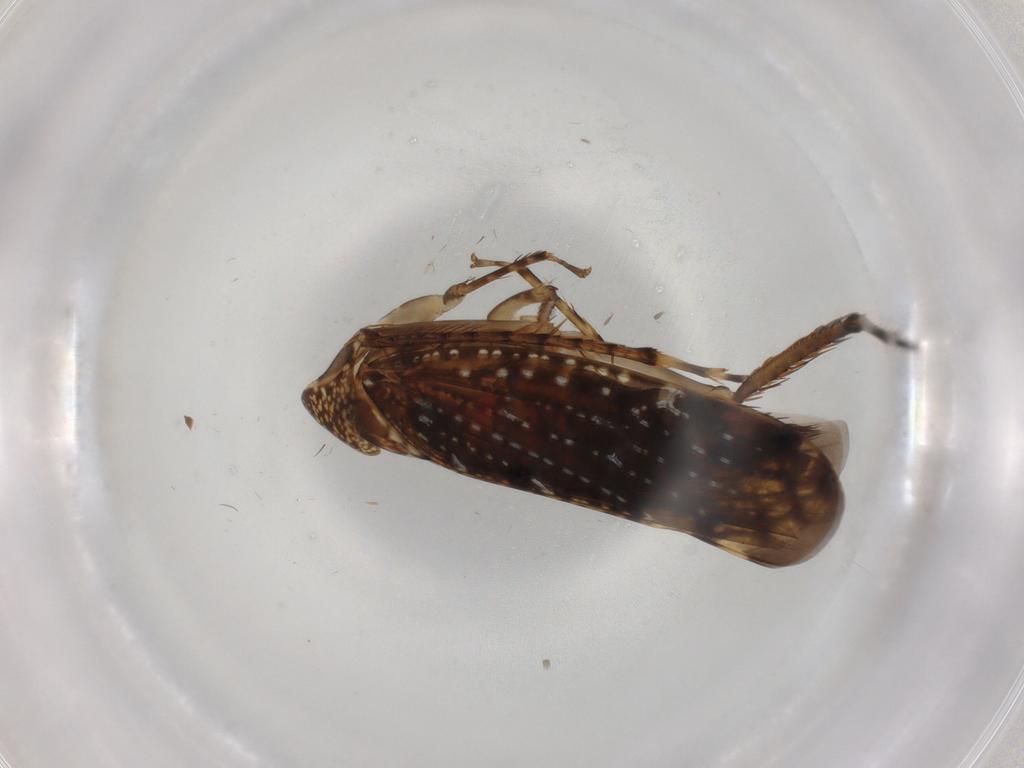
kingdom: Animalia
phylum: Arthropoda
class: Insecta
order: Hemiptera
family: Cicadellidae
